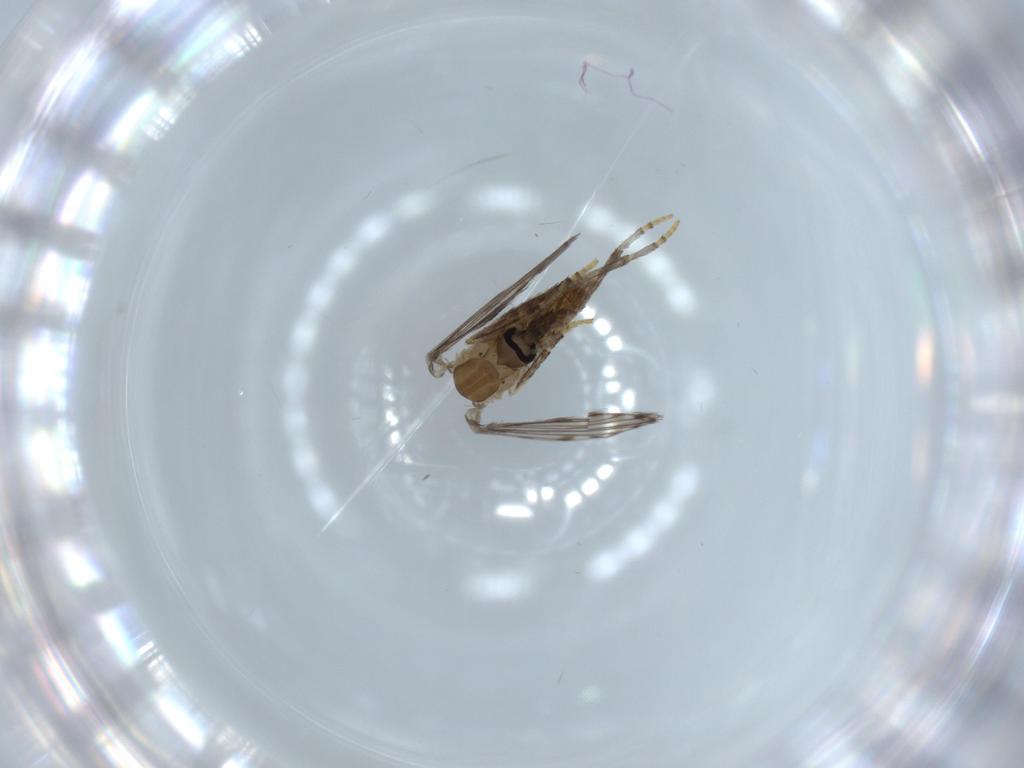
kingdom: Animalia
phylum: Arthropoda
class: Insecta
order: Diptera
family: Psychodidae
